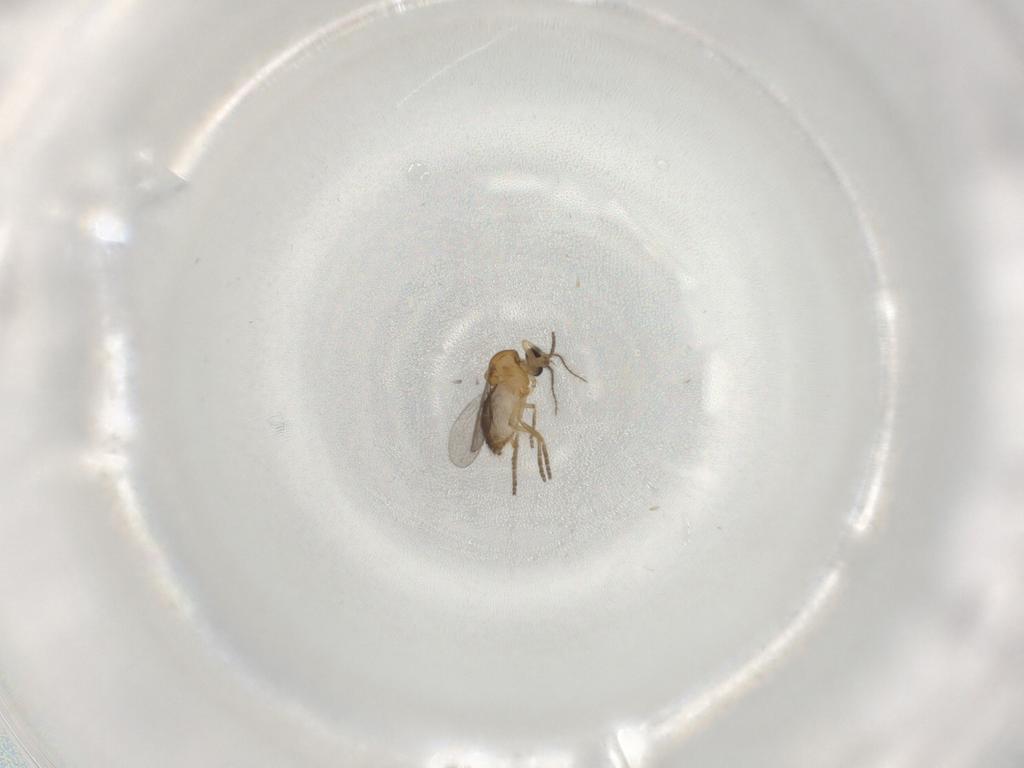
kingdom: Animalia
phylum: Arthropoda
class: Insecta
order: Diptera
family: Ceratopogonidae
